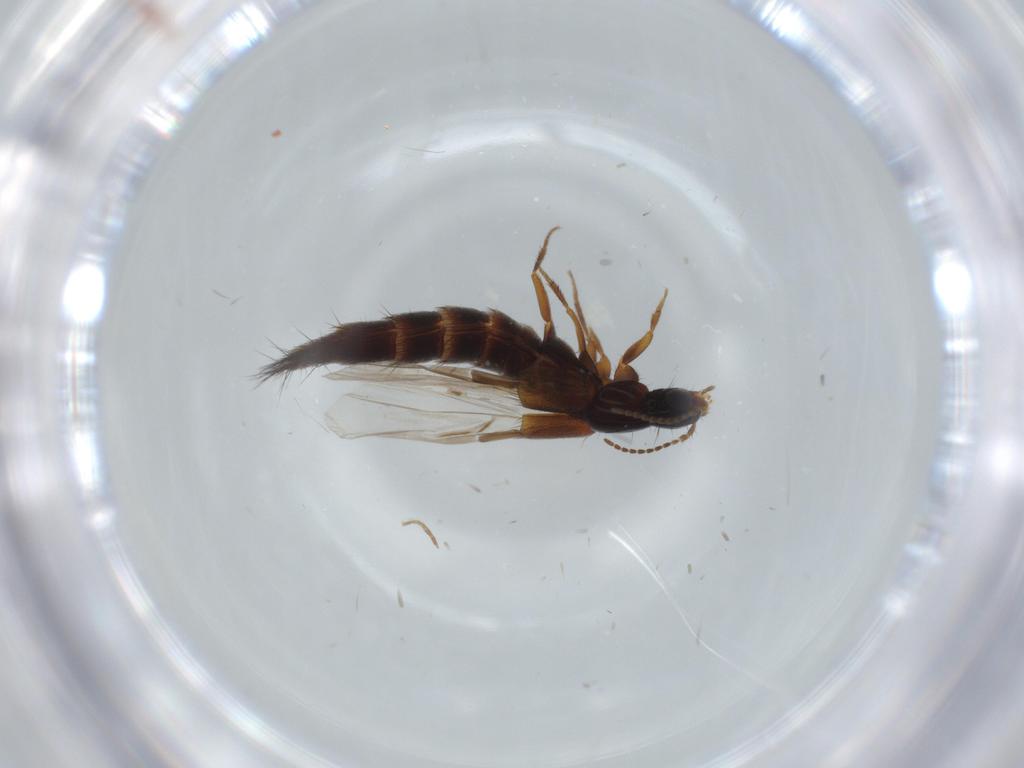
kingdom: Animalia
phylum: Arthropoda
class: Insecta
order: Coleoptera
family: Mordellidae
